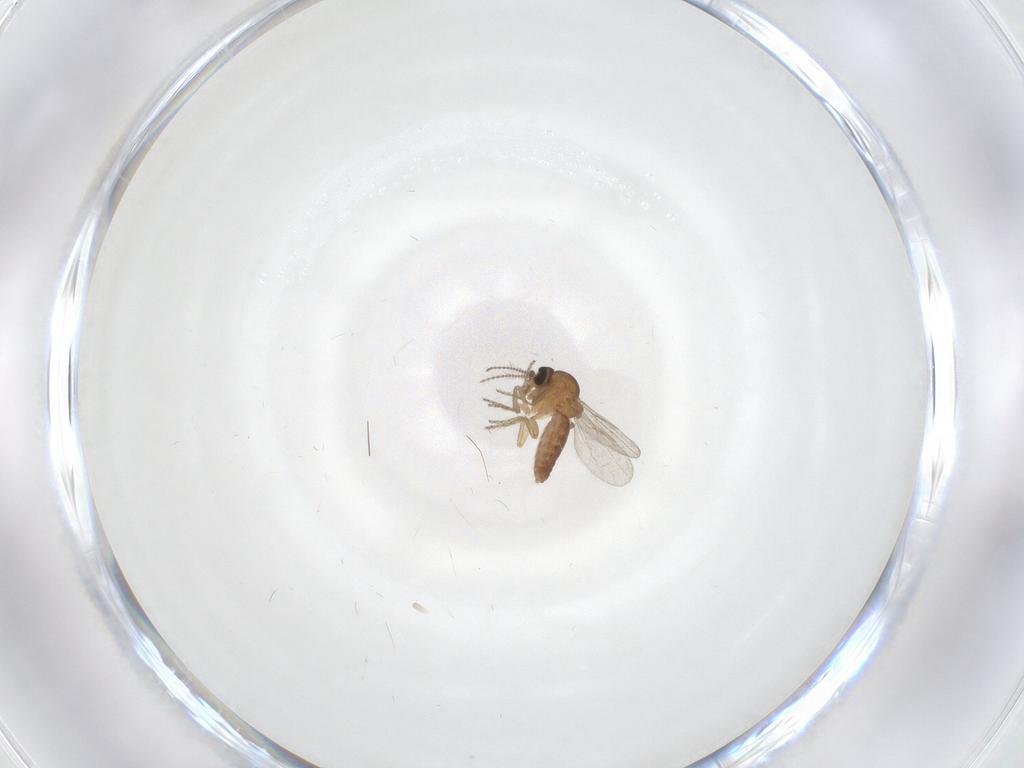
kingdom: Animalia
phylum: Arthropoda
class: Insecta
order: Diptera
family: Ceratopogonidae
